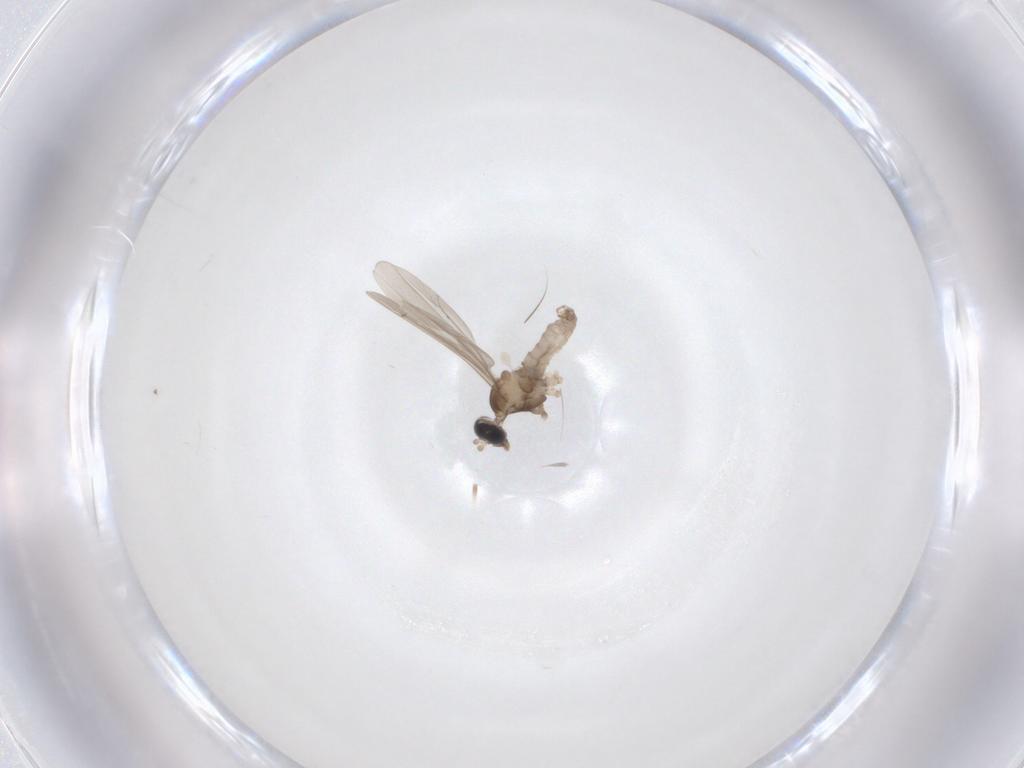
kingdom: Animalia
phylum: Arthropoda
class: Insecta
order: Diptera
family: Cecidomyiidae
